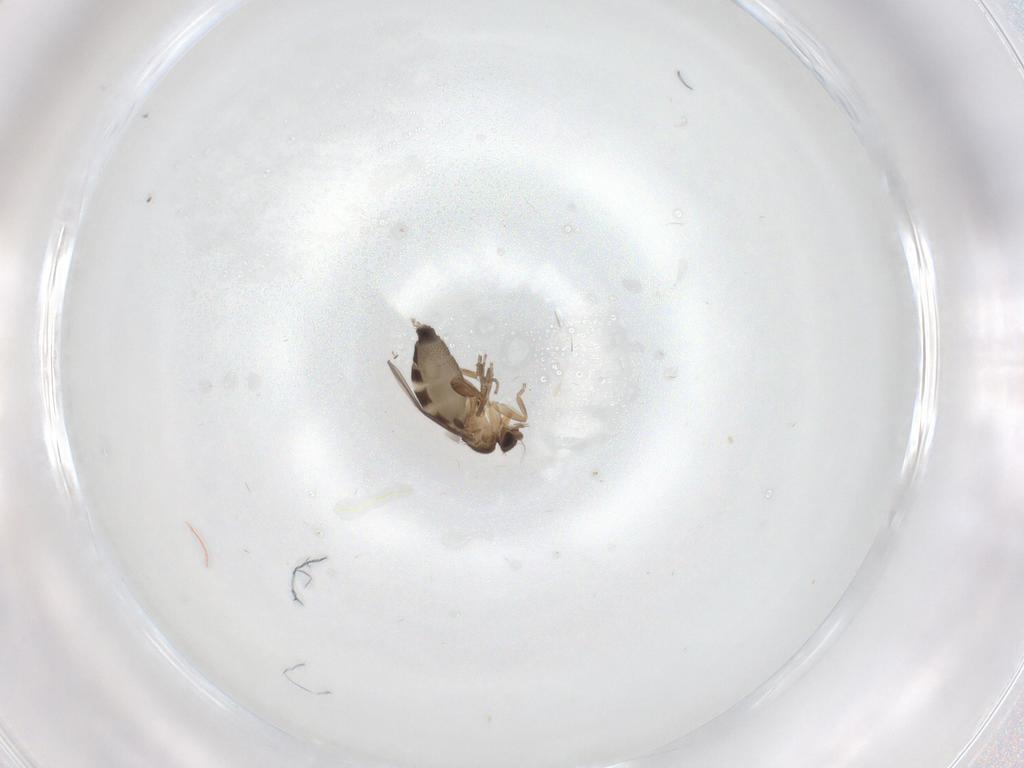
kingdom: Animalia
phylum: Arthropoda
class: Insecta
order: Diptera
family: Phoridae
